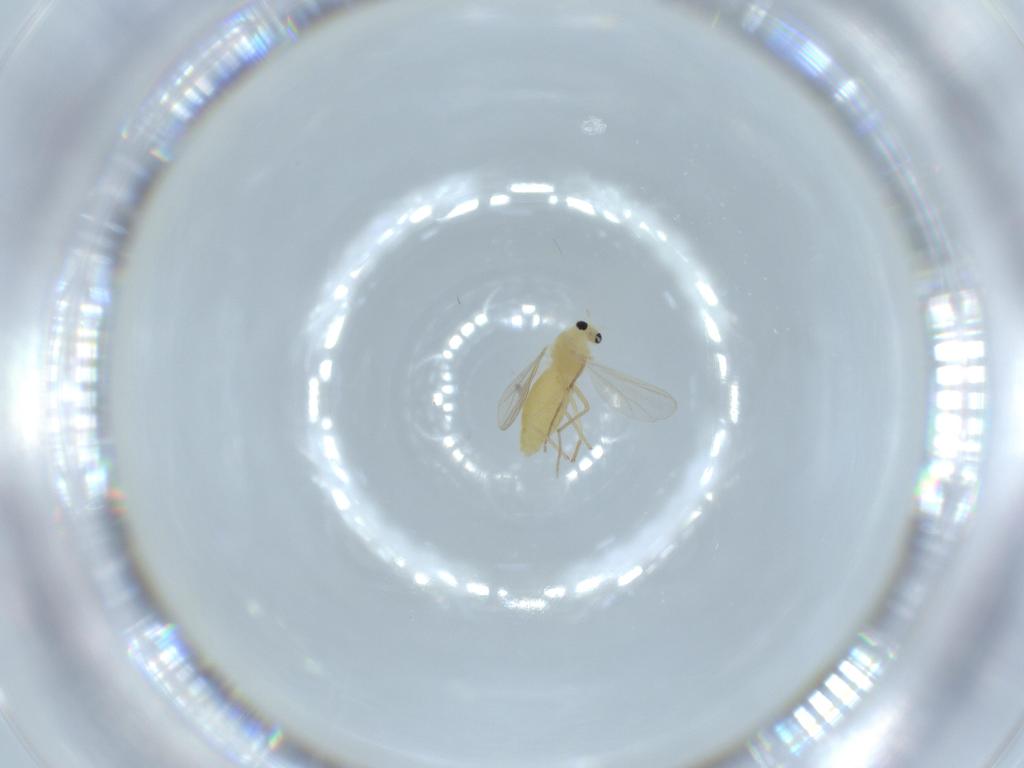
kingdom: Animalia
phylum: Arthropoda
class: Insecta
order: Diptera
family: Chironomidae
